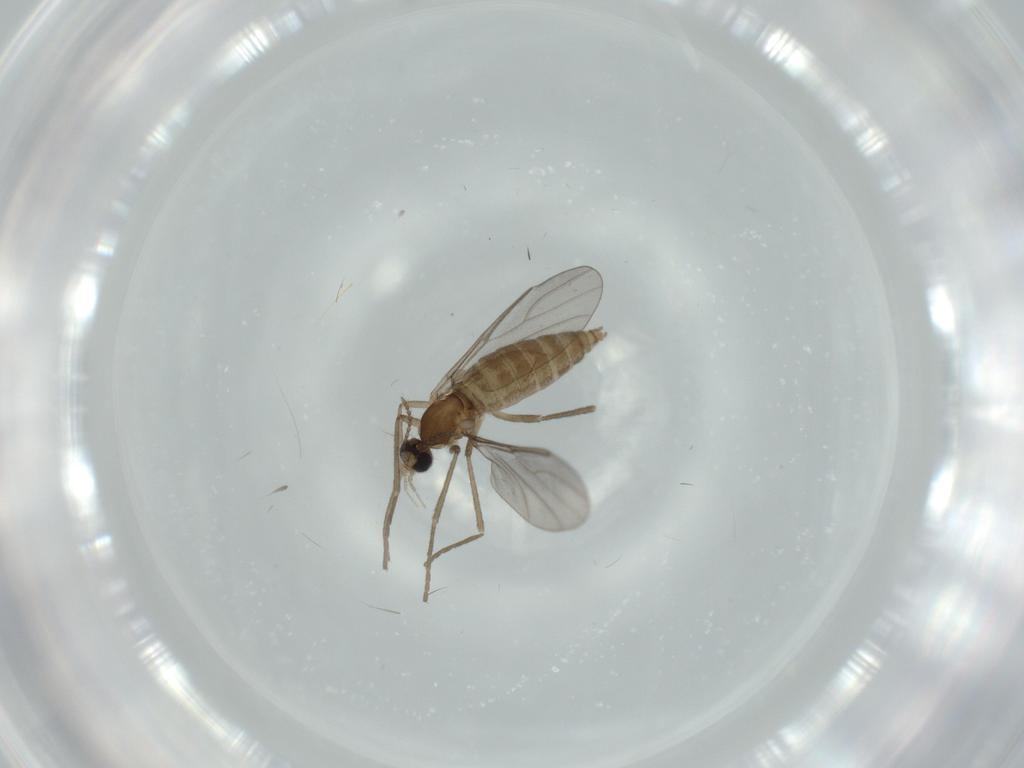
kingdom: Animalia
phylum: Arthropoda
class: Insecta
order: Diptera
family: Cecidomyiidae
